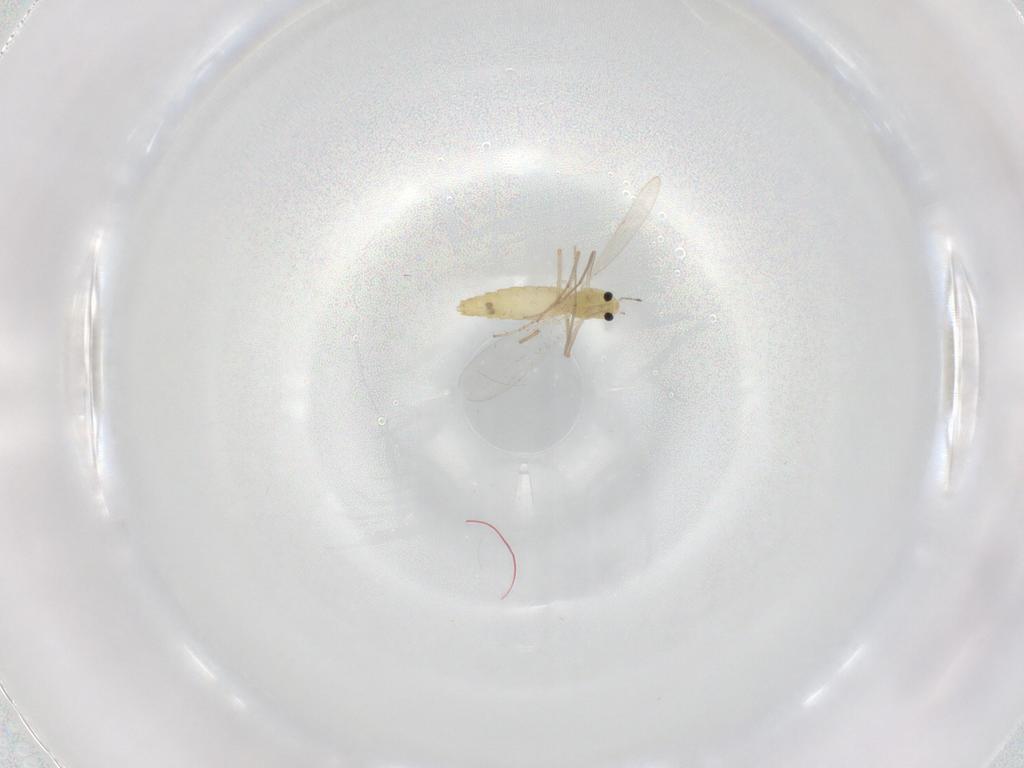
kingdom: Animalia
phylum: Arthropoda
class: Insecta
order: Diptera
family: Chironomidae
